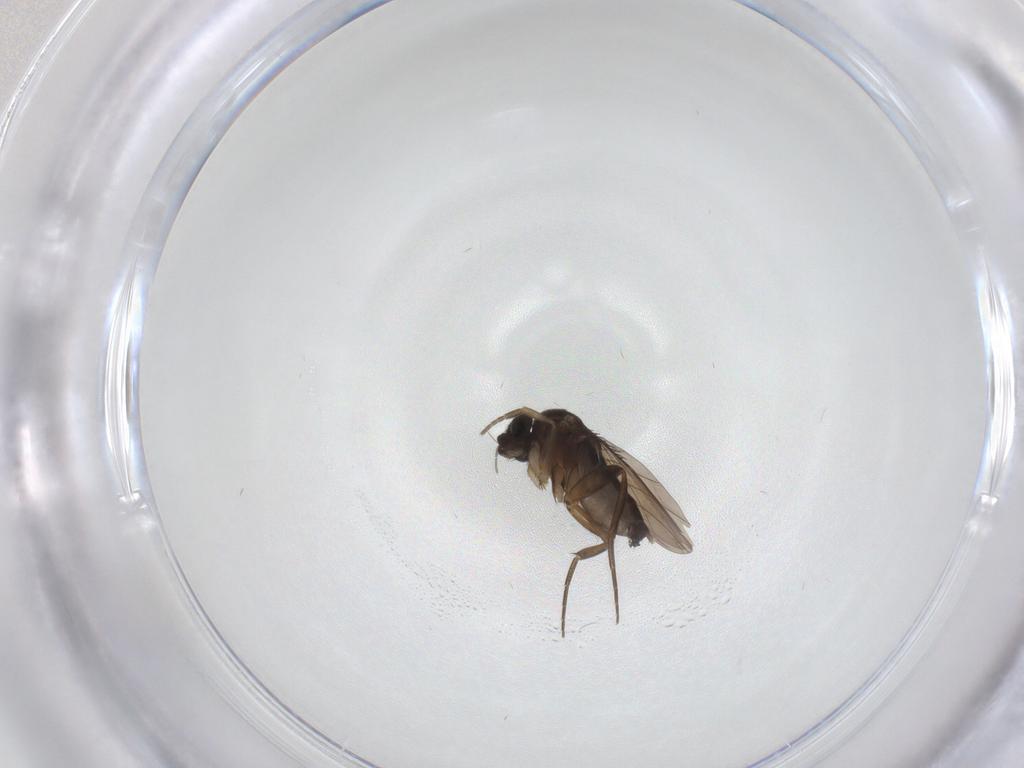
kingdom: Animalia
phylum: Arthropoda
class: Insecta
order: Diptera
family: Phoridae
